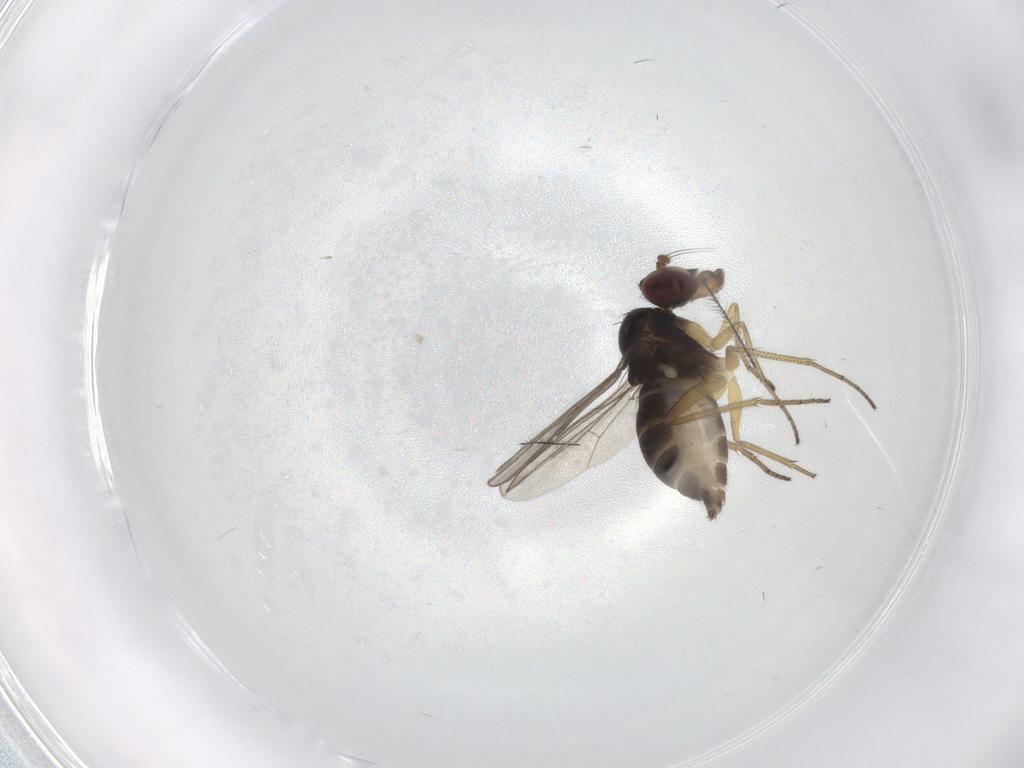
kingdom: Animalia
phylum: Arthropoda
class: Insecta
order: Diptera
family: Dolichopodidae
